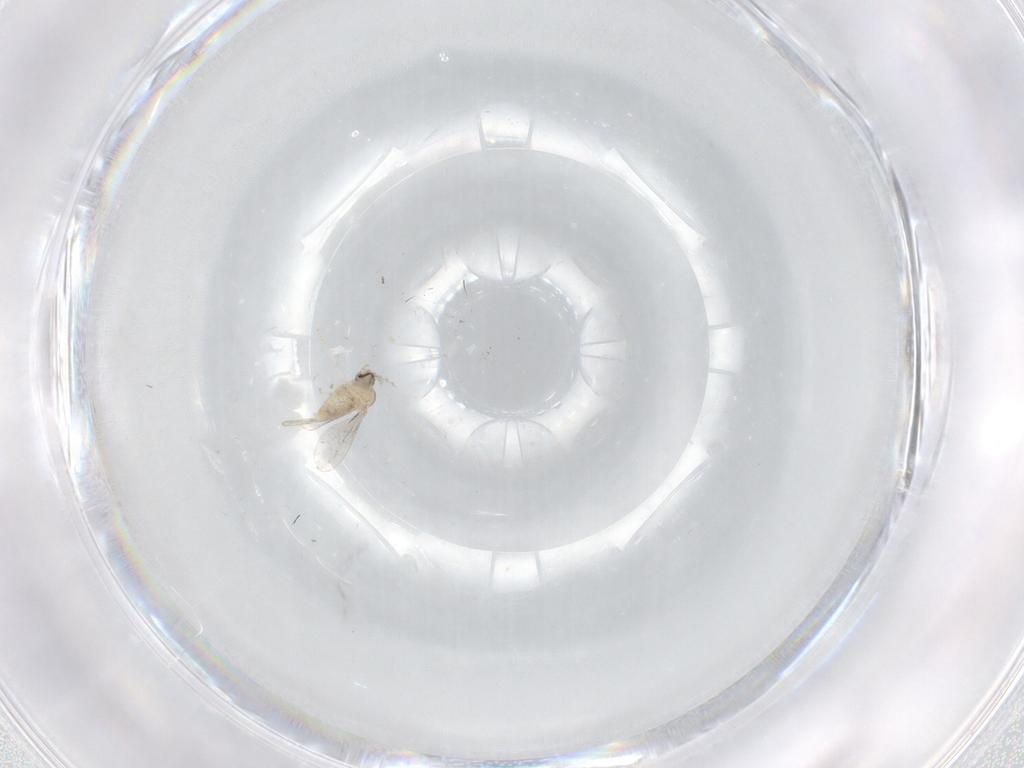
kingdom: Animalia
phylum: Arthropoda
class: Insecta
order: Diptera
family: Cecidomyiidae
